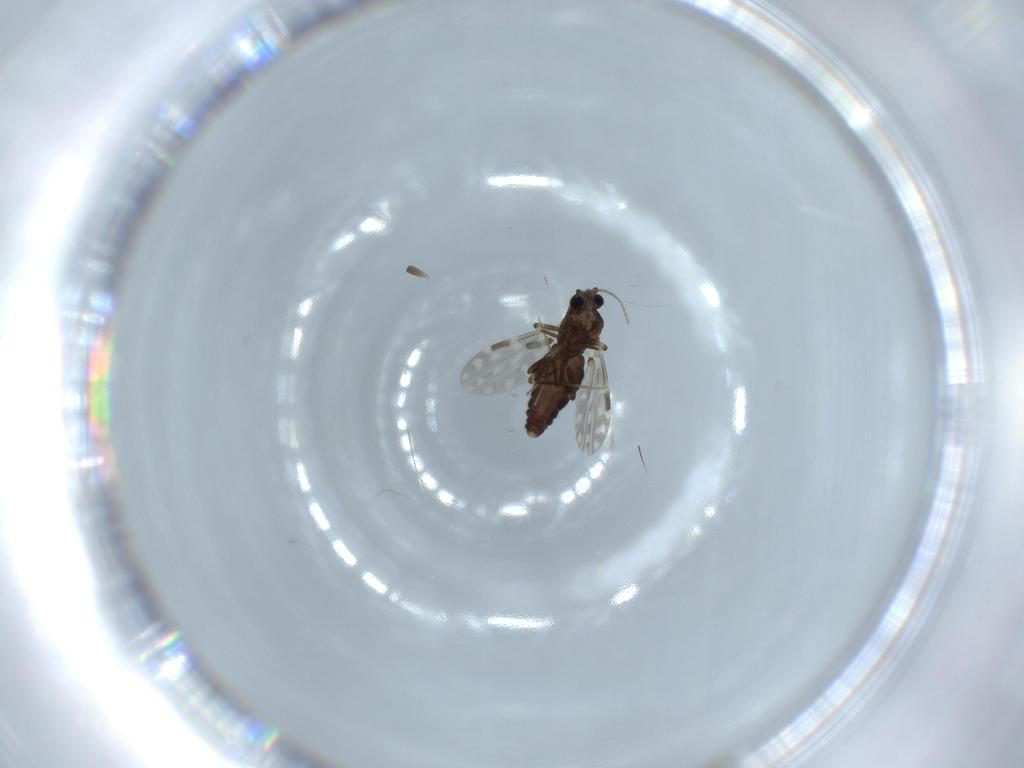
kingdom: Animalia
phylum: Arthropoda
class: Insecta
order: Diptera
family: Ceratopogonidae
